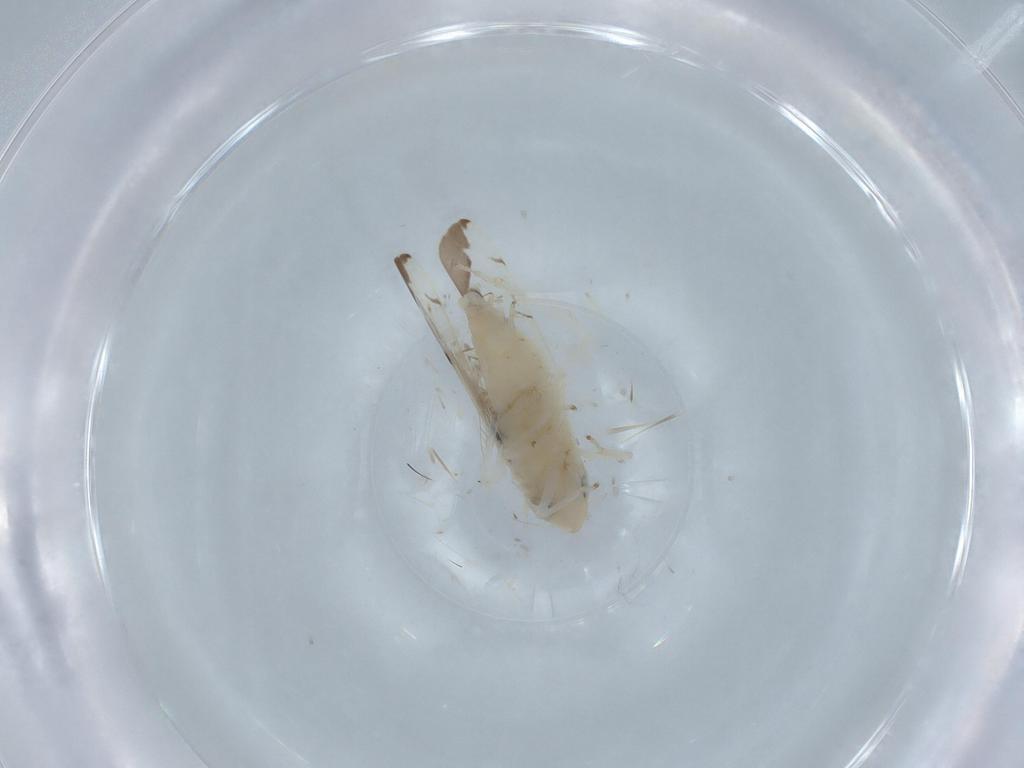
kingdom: Animalia
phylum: Arthropoda
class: Insecta
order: Hemiptera
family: Cicadellidae
